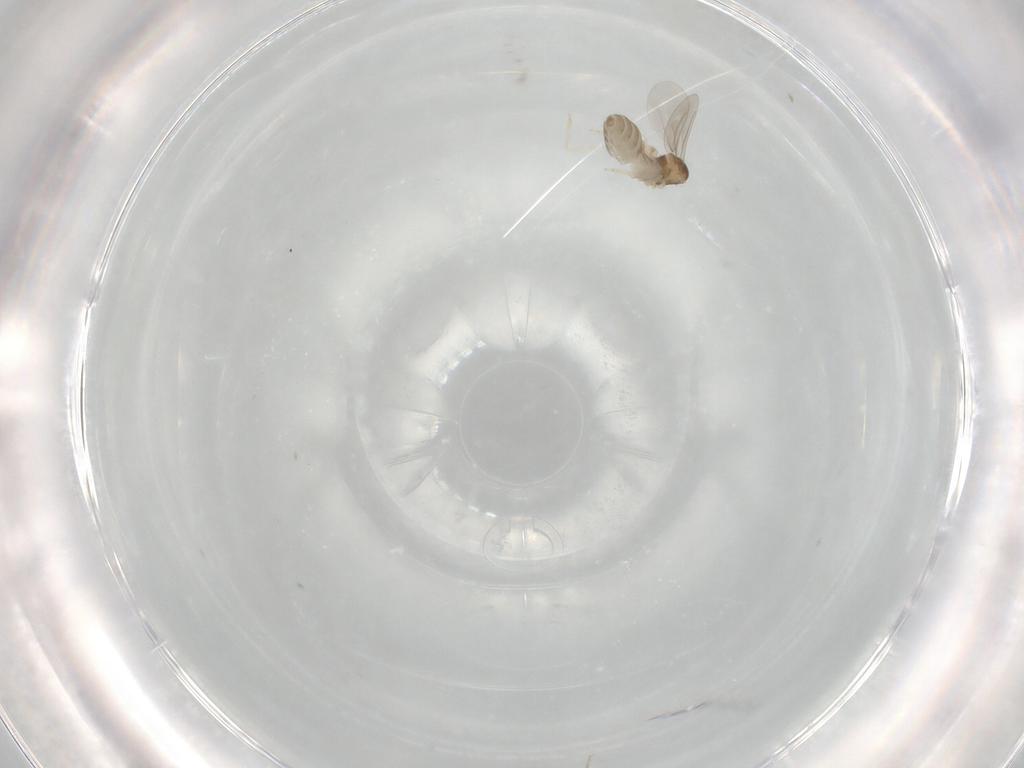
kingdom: Animalia
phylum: Arthropoda
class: Insecta
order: Diptera
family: Cecidomyiidae
